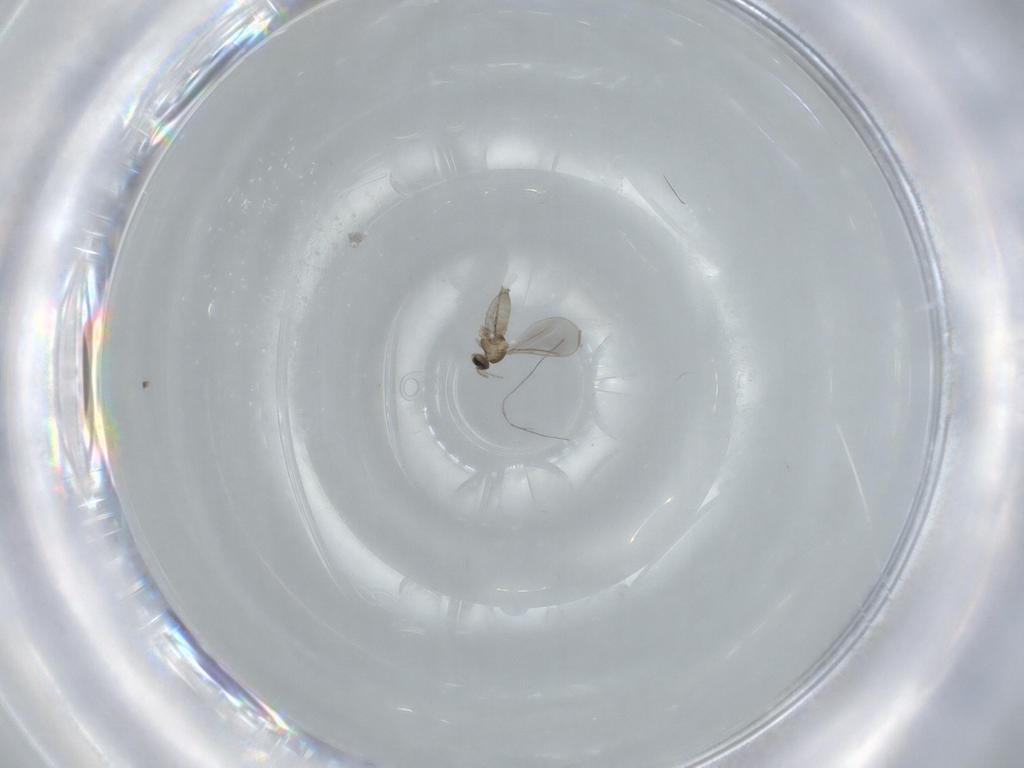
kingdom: Animalia
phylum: Arthropoda
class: Insecta
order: Diptera
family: Cecidomyiidae
